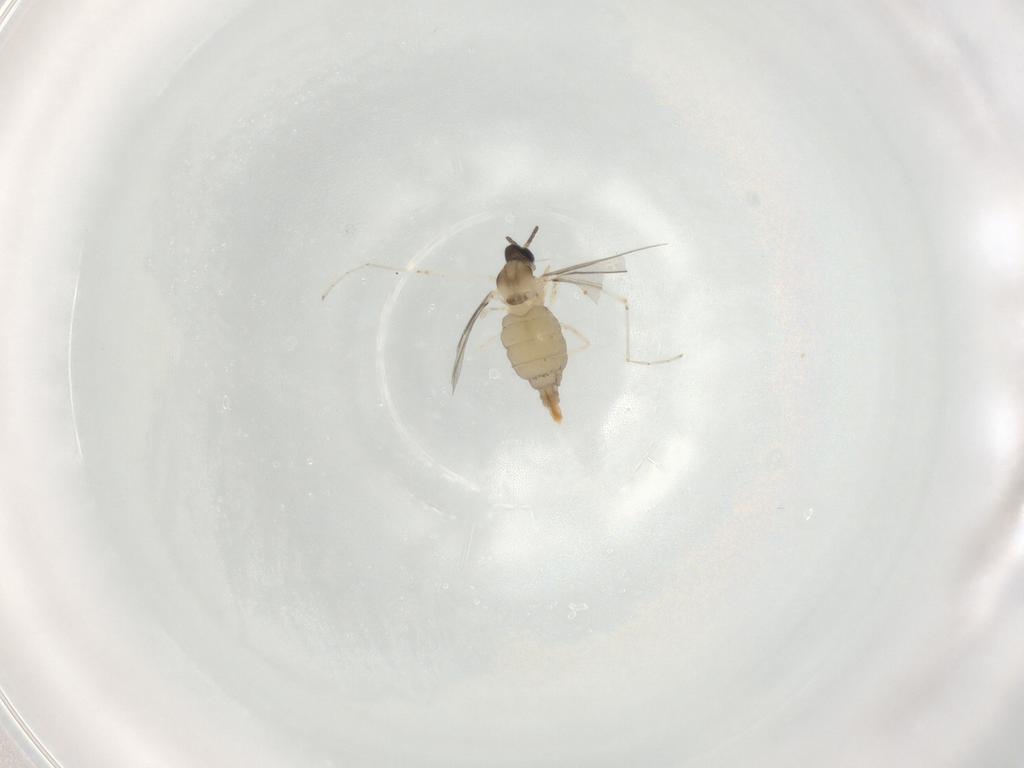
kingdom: Animalia
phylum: Arthropoda
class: Insecta
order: Diptera
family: Cecidomyiidae
